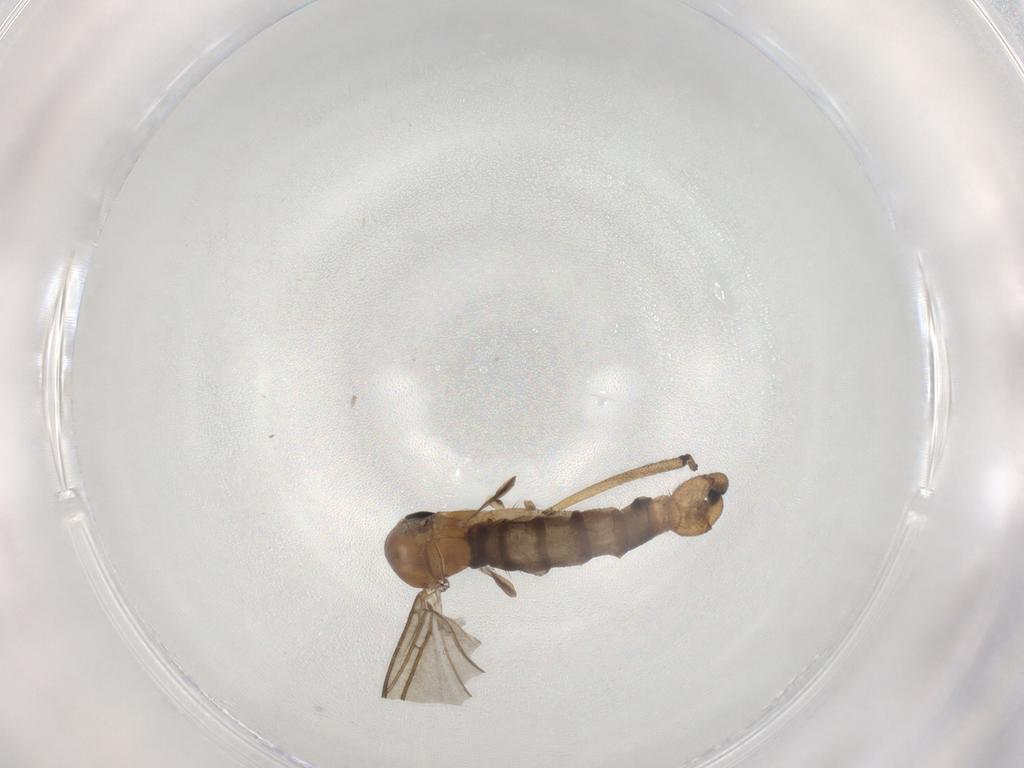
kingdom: Animalia
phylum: Arthropoda
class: Insecta
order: Diptera
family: Sciaridae
